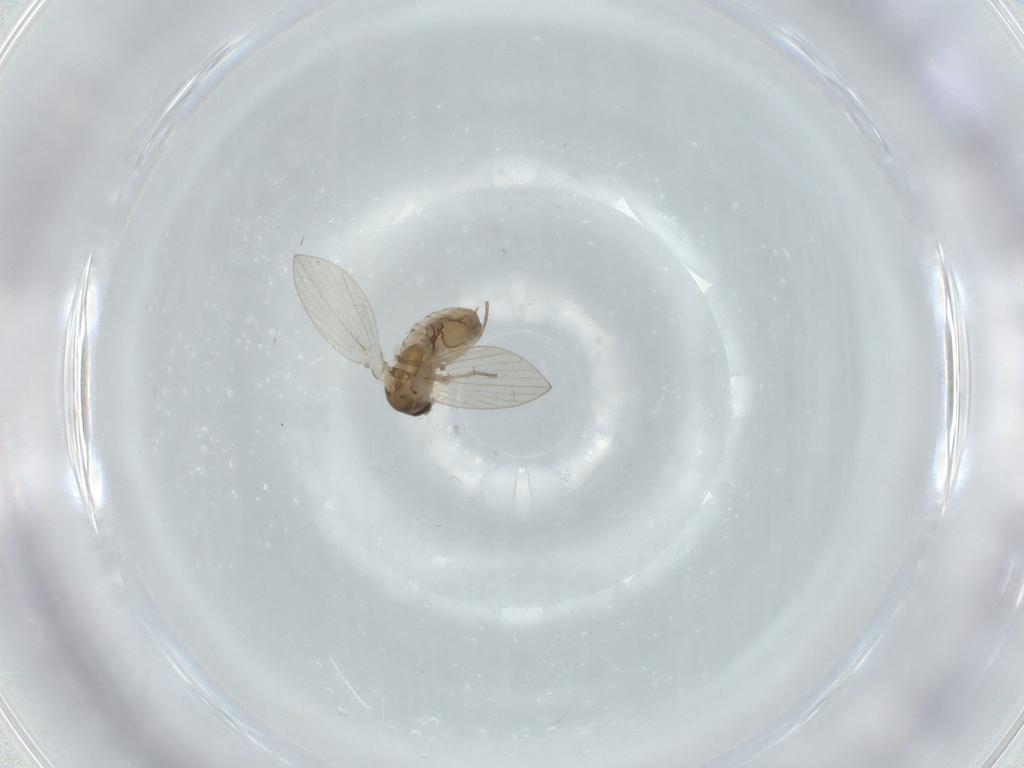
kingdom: Animalia
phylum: Arthropoda
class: Insecta
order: Diptera
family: Psychodidae
